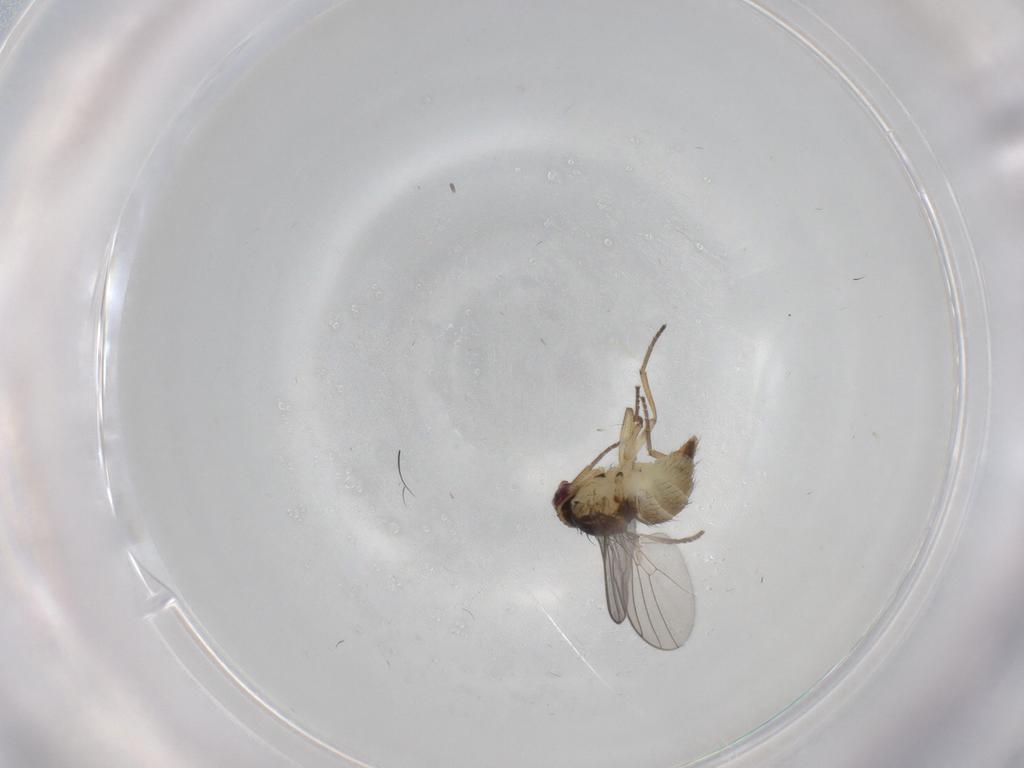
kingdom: Animalia
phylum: Arthropoda
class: Insecta
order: Diptera
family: Agromyzidae
